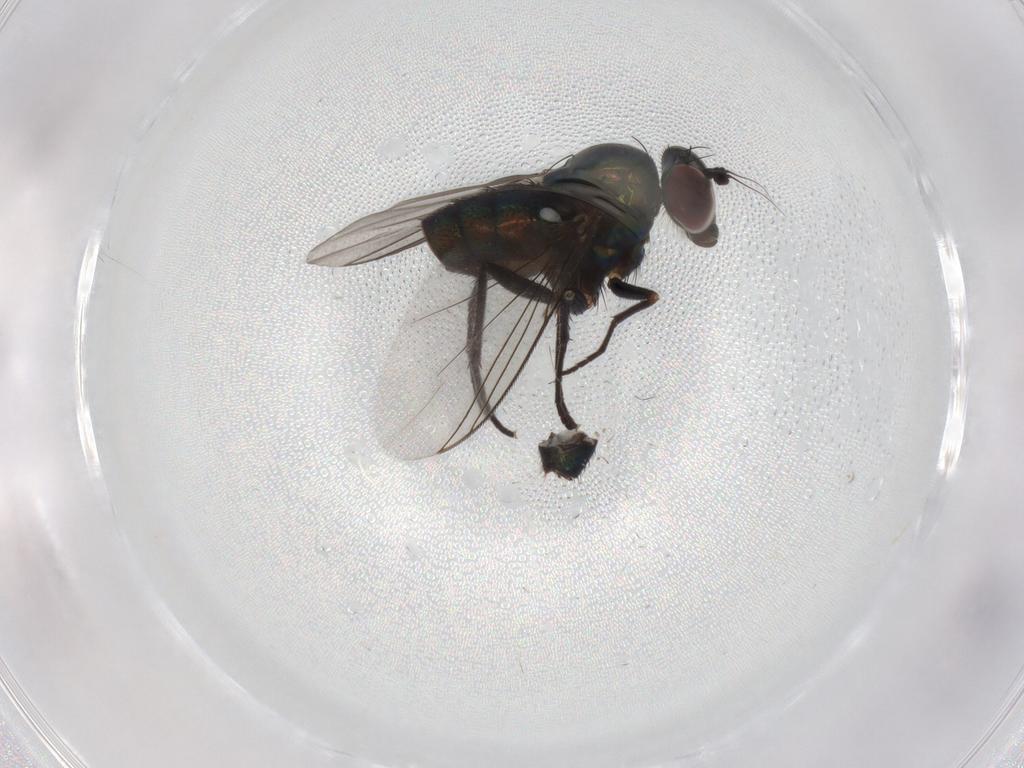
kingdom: Animalia
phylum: Arthropoda
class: Insecta
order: Diptera
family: Dolichopodidae
